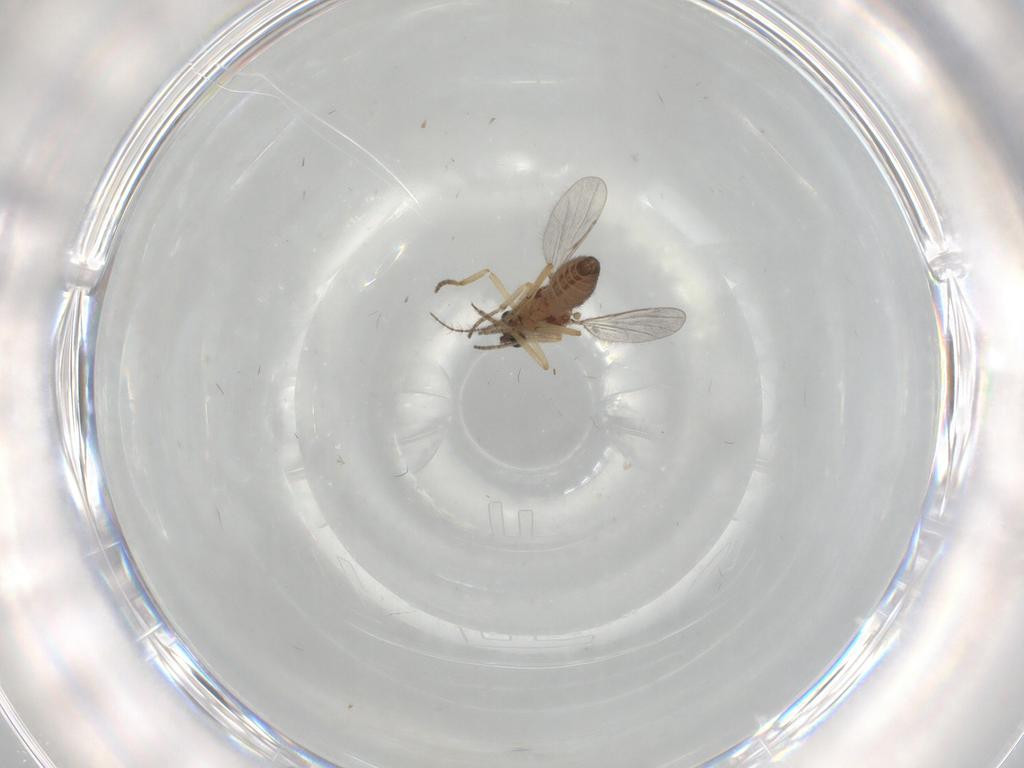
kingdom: Animalia
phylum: Arthropoda
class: Insecta
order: Diptera
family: Ceratopogonidae
